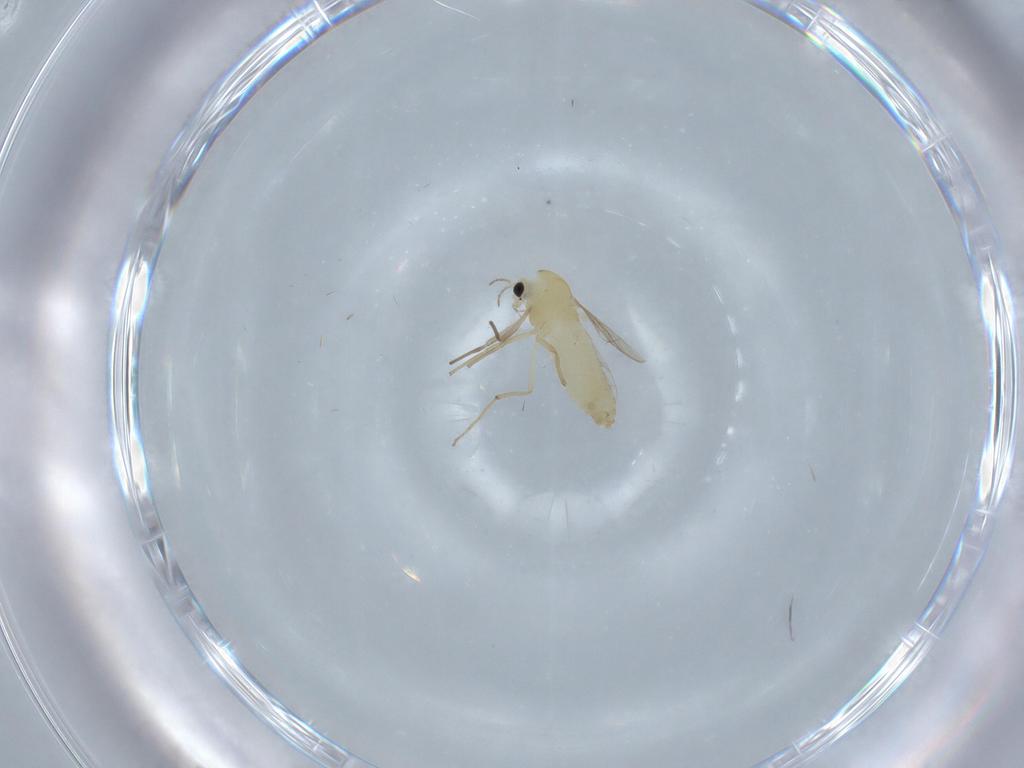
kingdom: Animalia
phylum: Arthropoda
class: Insecta
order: Diptera
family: Chironomidae
